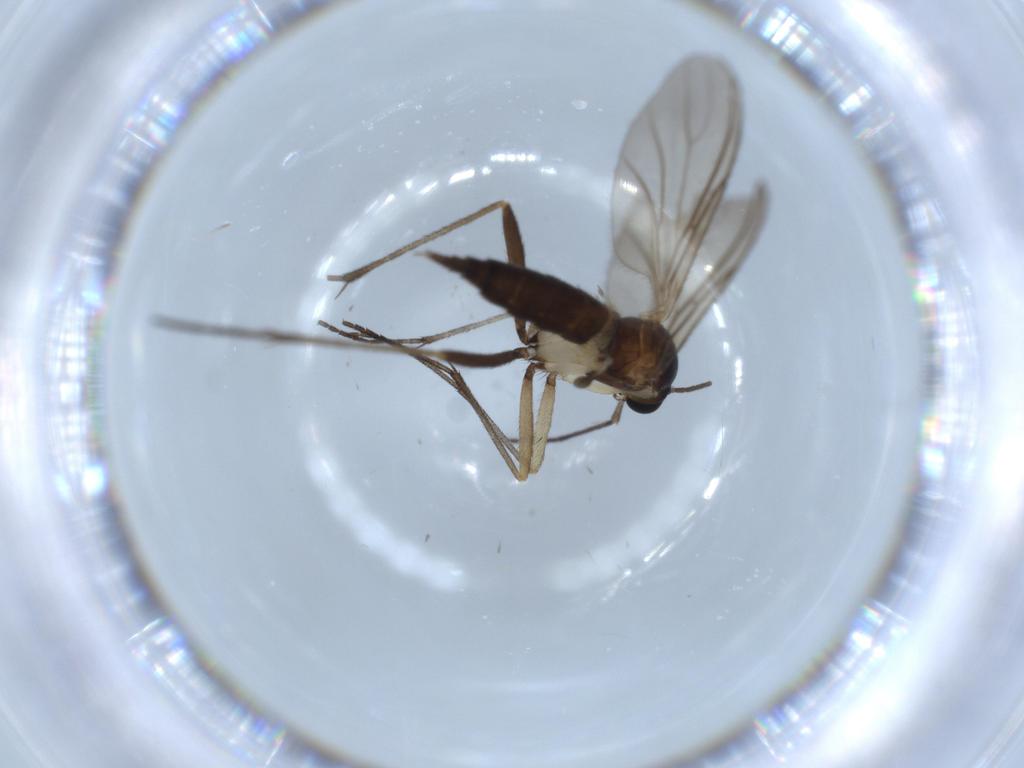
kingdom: Animalia
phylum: Arthropoda
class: Insecta
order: Diptera
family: Sciaridae
